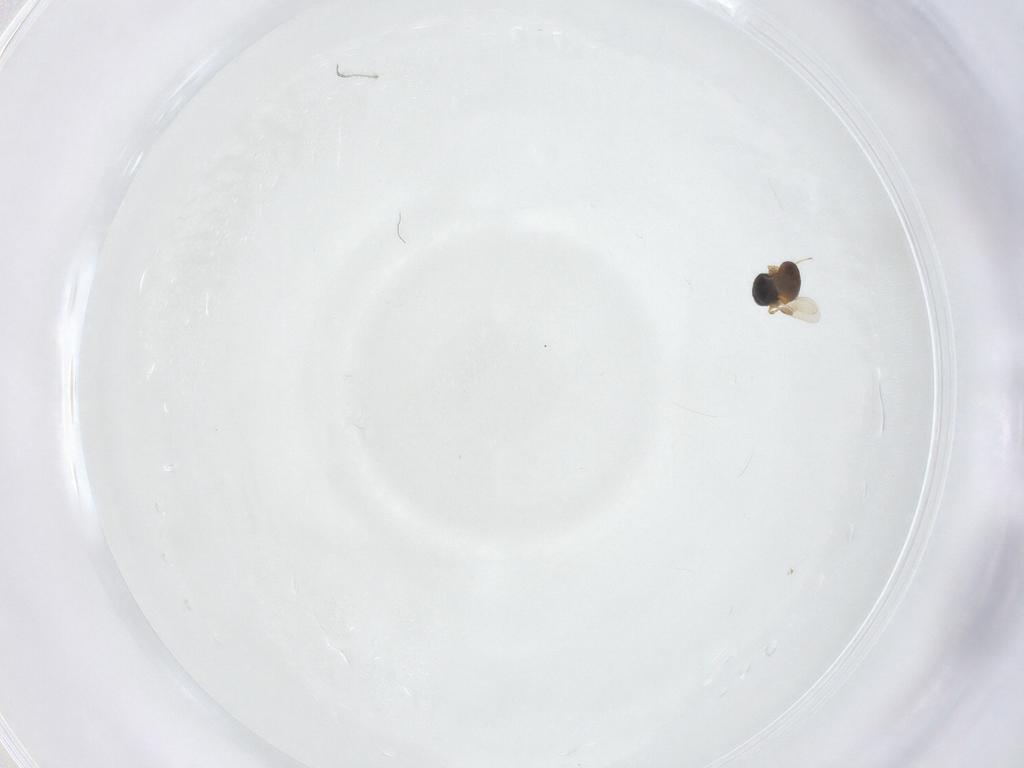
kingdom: Animalia
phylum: Arthropoda
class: Insecta
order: Hymenoptera
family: Scelionidae
